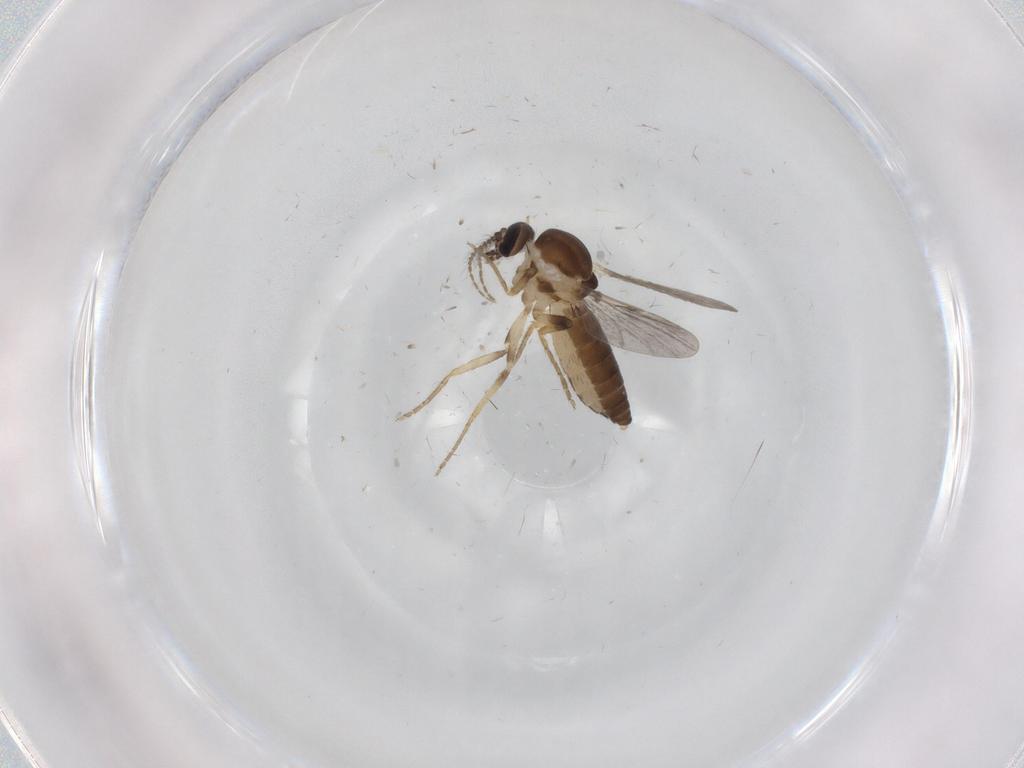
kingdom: Animalia
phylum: Arthropoda
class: Insecta
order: Diptera
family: Ceratopogonidae
